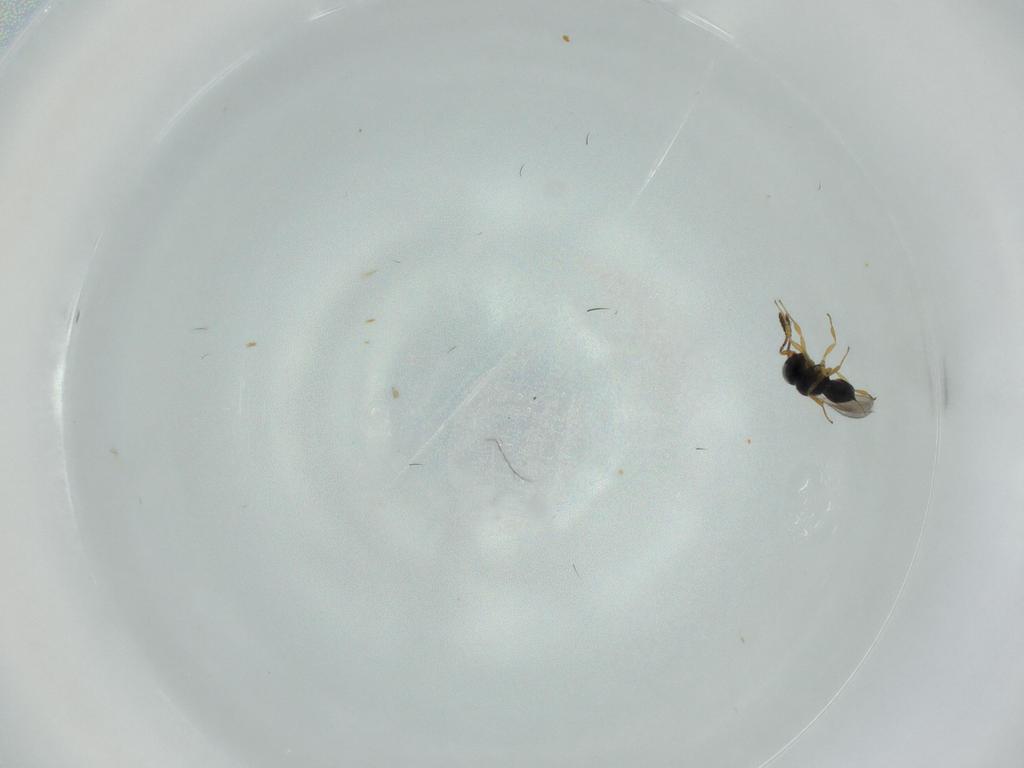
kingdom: Animalia
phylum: Arthropoda
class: Insecta
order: Hymenoptera
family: Scelionidae
